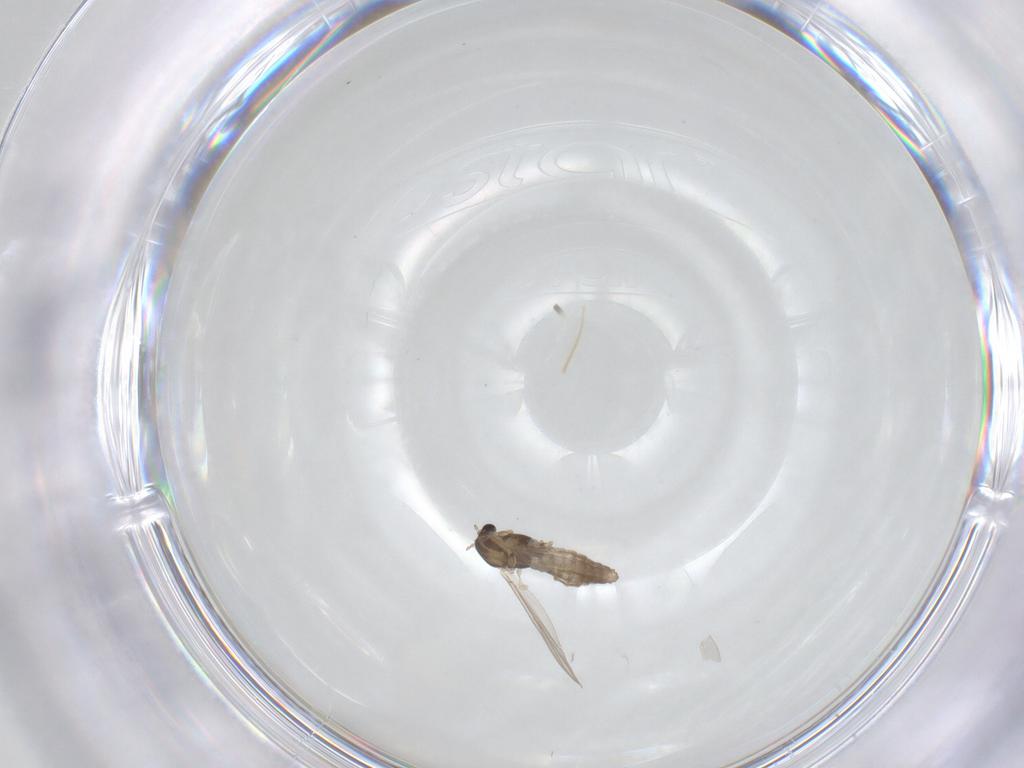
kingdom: Animalia
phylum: Arthropoda
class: Insecta
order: Diptera
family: Chironomidae
